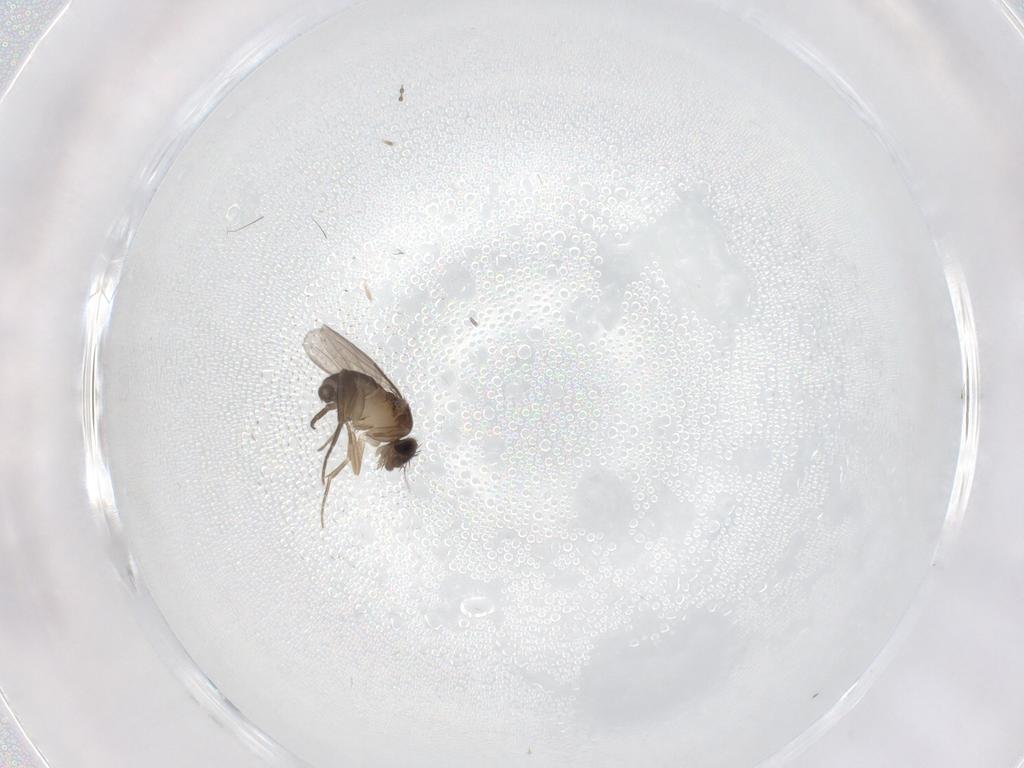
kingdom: Animalia
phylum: Arthropoda
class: Insecta
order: Diptera
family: Phoridae
